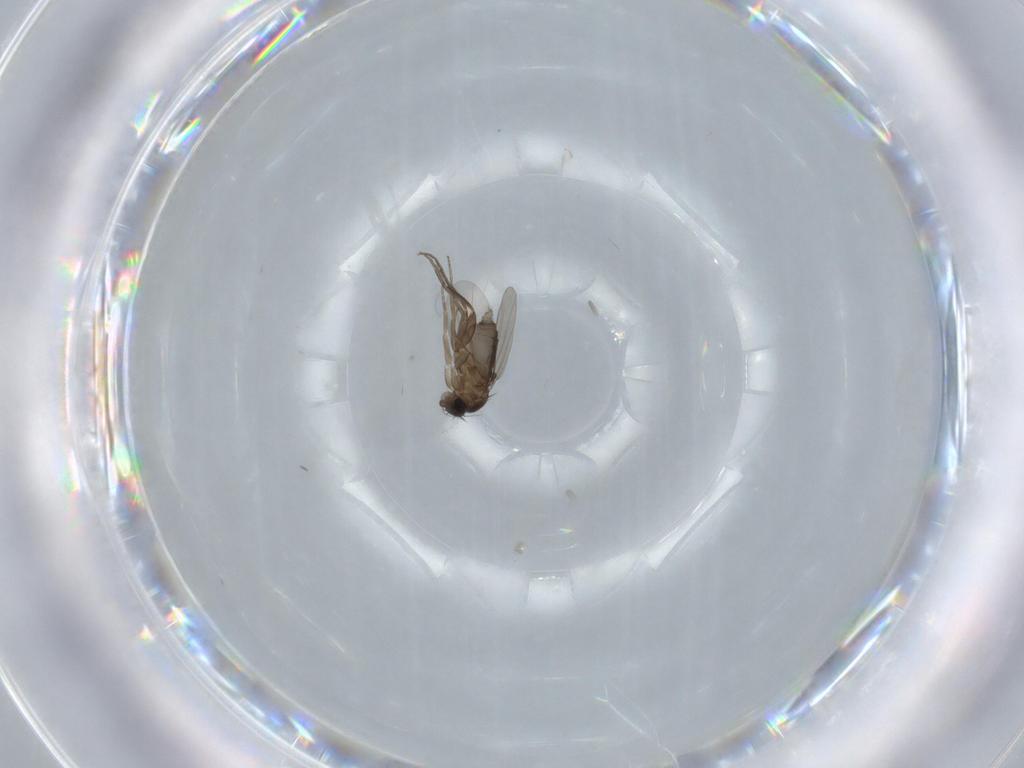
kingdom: Animalia
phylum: Arthropoda
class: Insecta
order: Diptera
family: Phoridae
